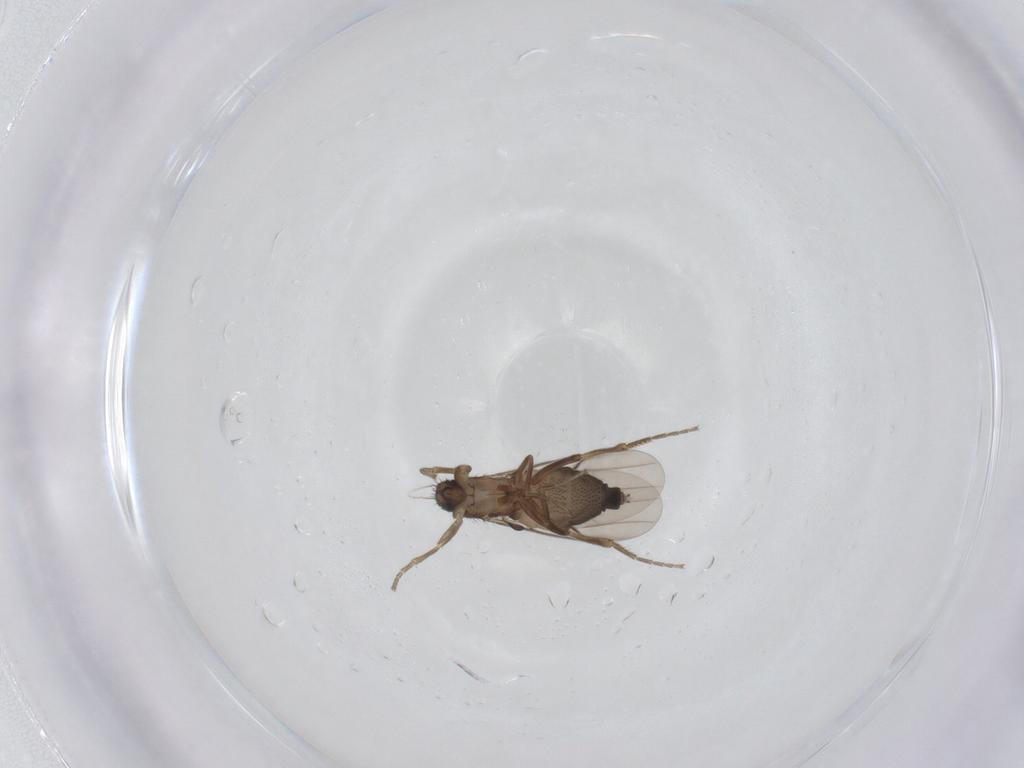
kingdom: Animalia
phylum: Arthropoda
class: Insecta
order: Diptera
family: Phoridae
